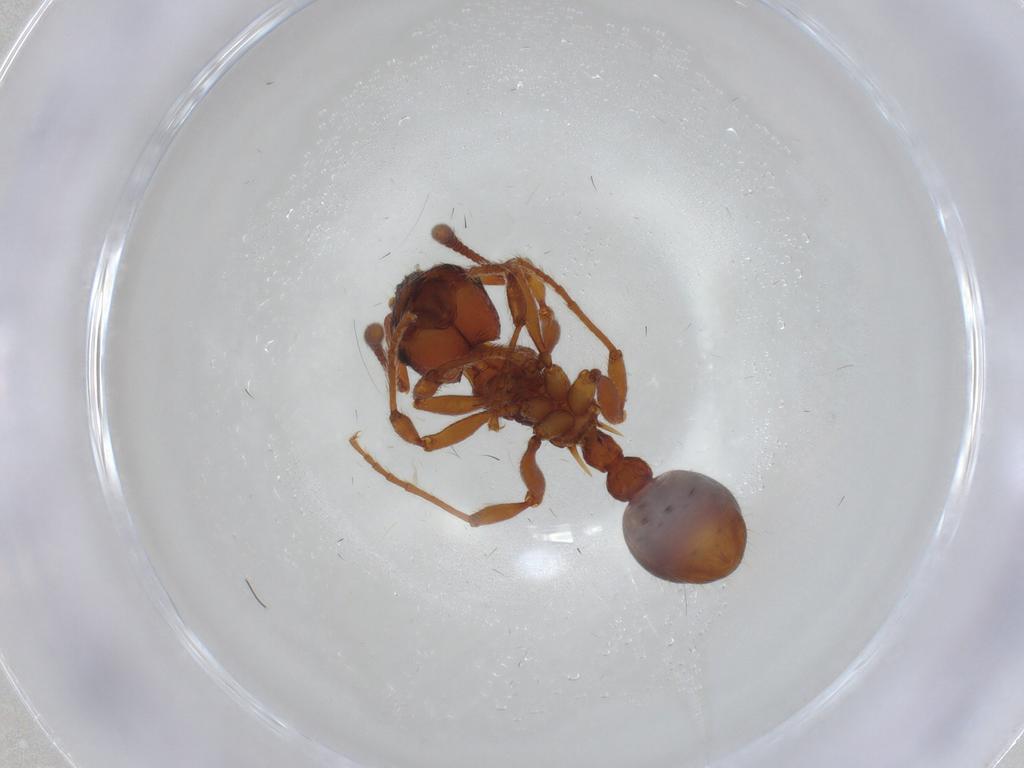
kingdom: Animalia
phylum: Arthropoda
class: Insecta
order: Hymenoptera
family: Formicidae
